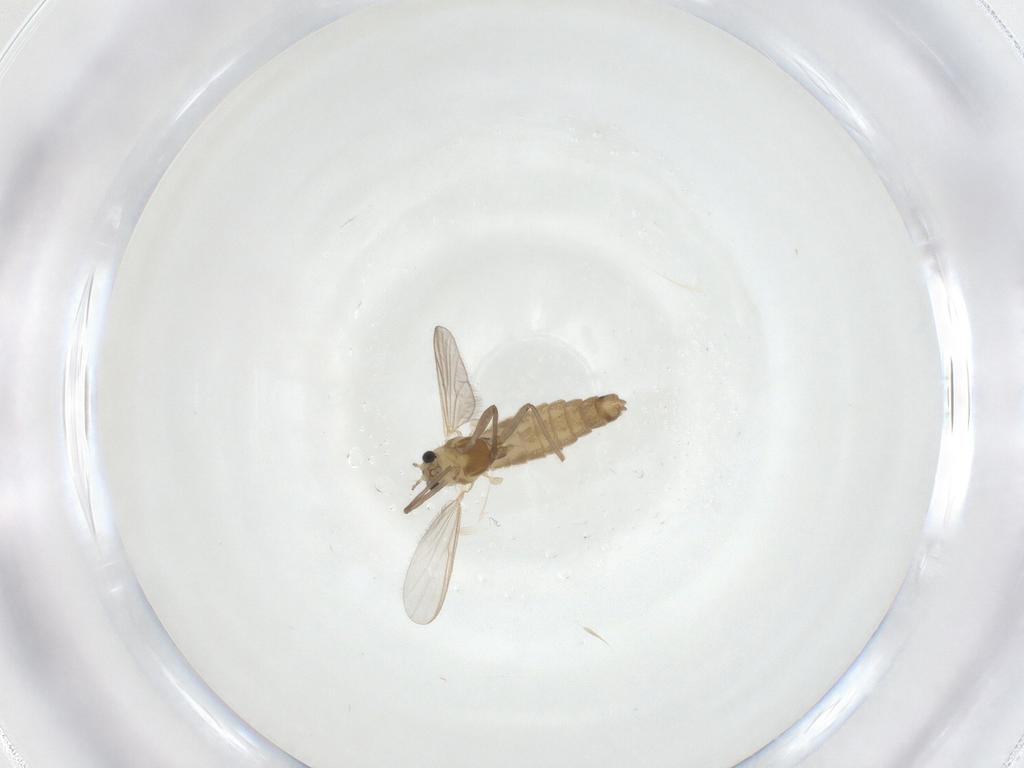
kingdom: Animalia
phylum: Arthropoda
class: Insecta
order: Diptera
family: Chironomidae
